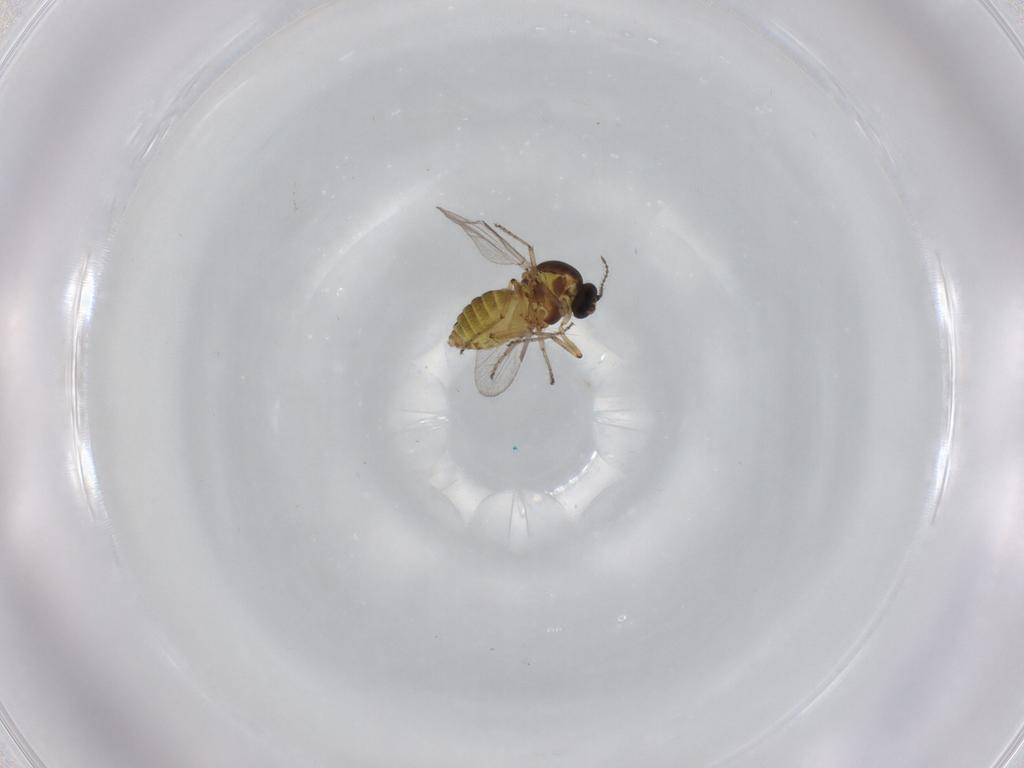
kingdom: Animalia
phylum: Arthropoda
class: Insecta
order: Diptera
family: Ceratopogonidae
